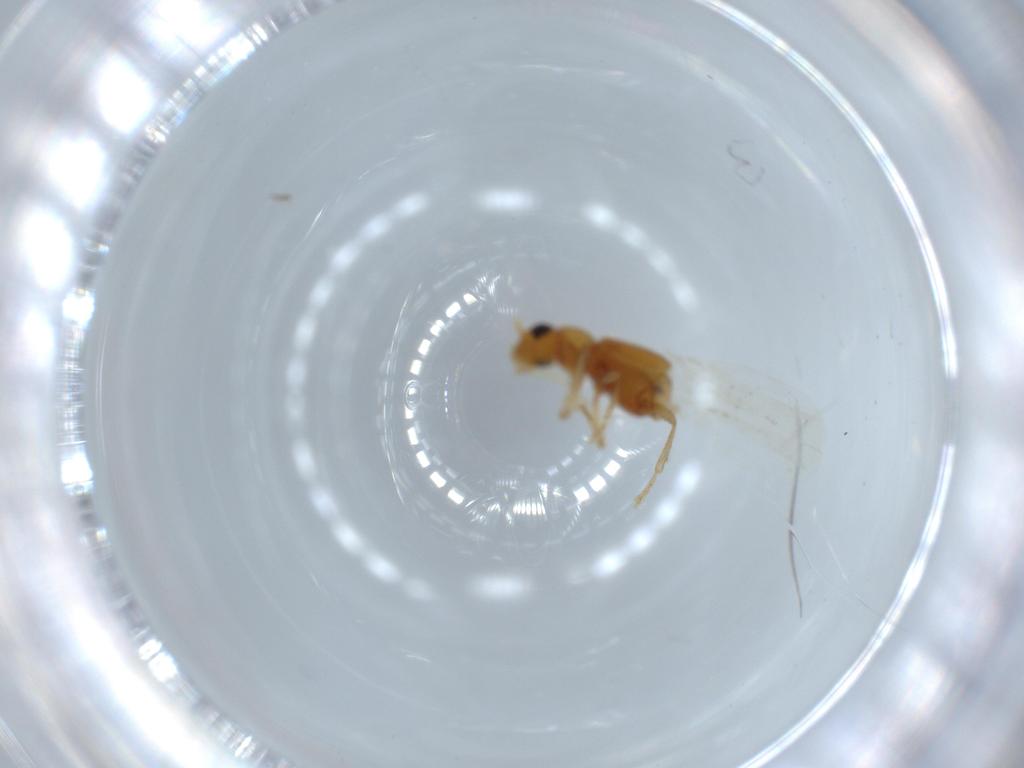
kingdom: Animalia
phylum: Arthropoda
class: Insecta
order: Coleoptera
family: Staphylinidae
